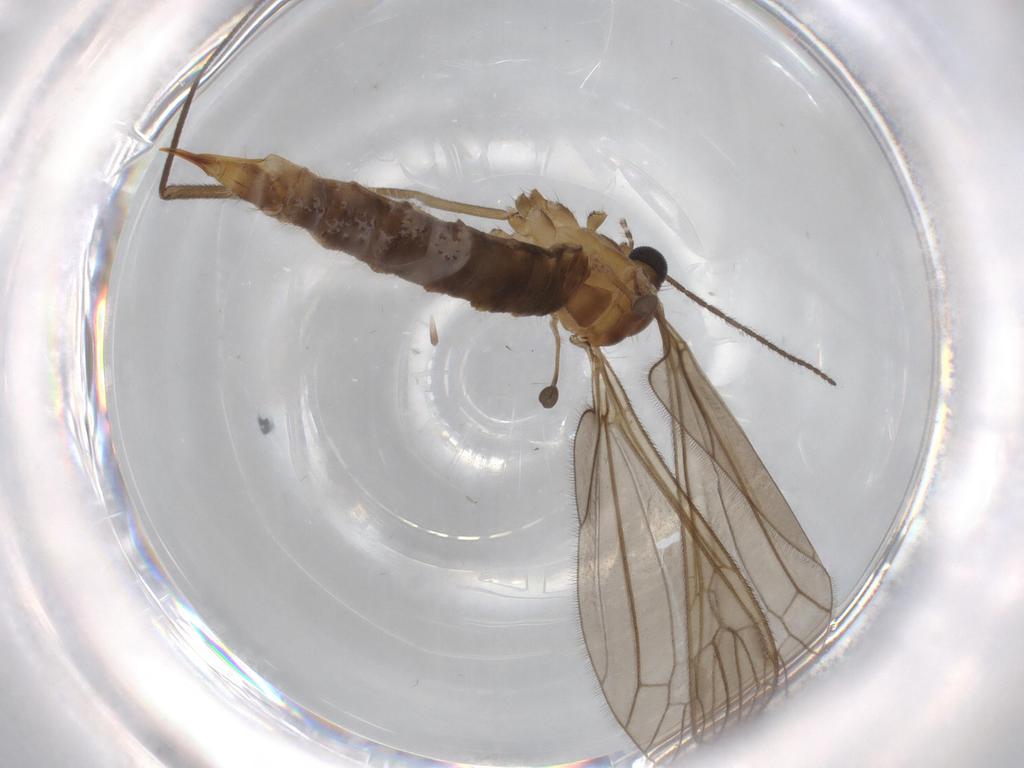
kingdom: Animalia
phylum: Arthropoda
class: Insecta
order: Diptera
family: Limoniidae
